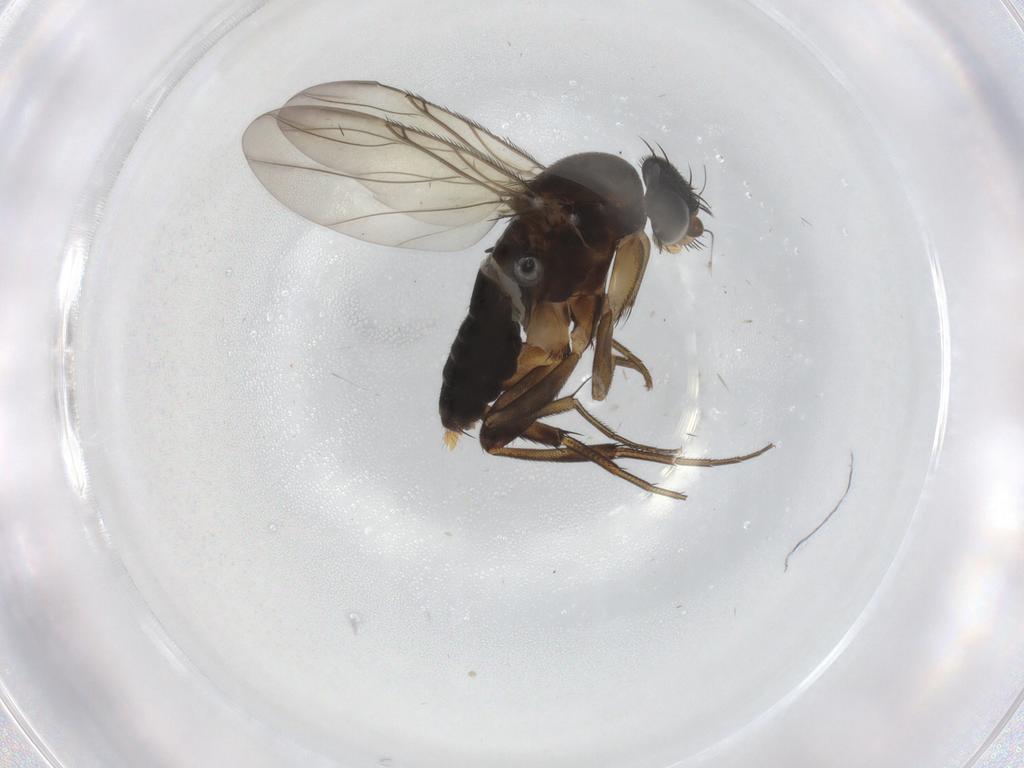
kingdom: Animalia
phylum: Arthropoda
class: Insecta
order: Diptera
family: Phoridae
